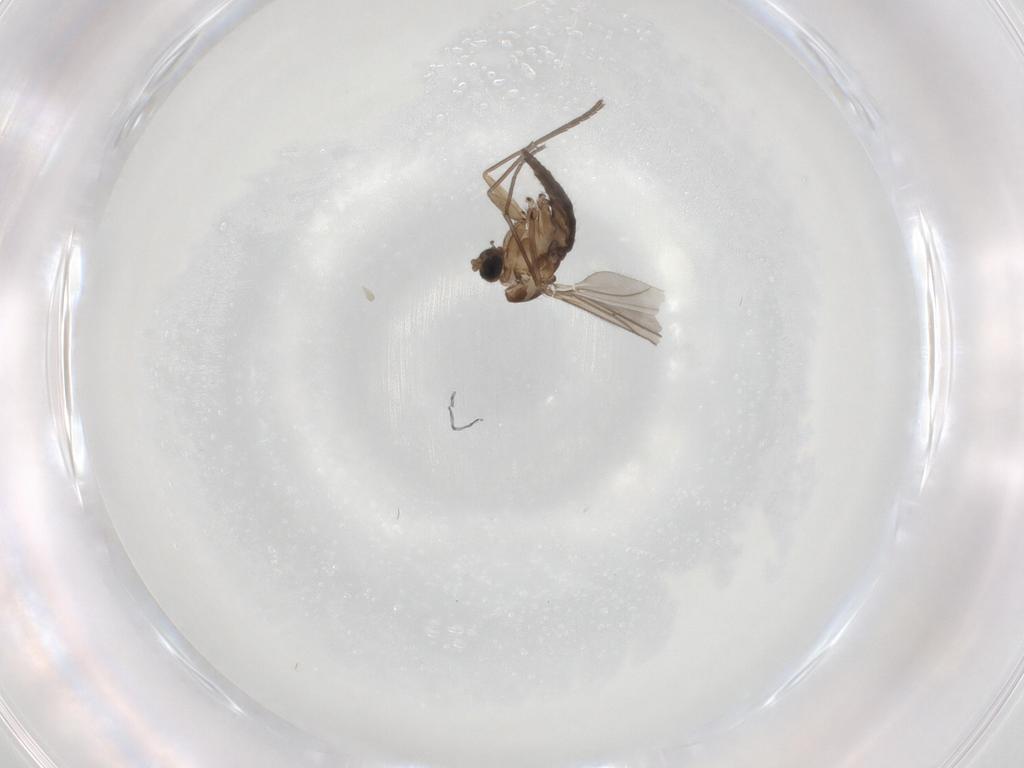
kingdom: Animalia
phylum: Arthropoda
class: Insecta
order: Diptera
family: Sciaridae
